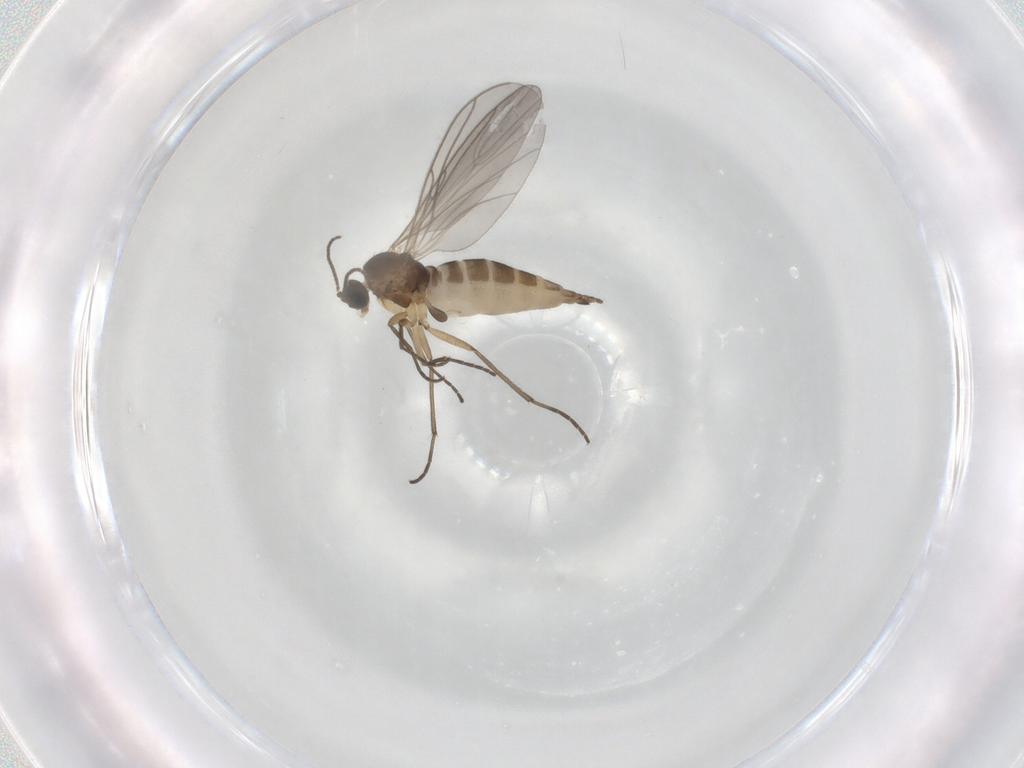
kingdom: Animalia
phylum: Arthropoda
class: Insecta
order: Diptera
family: Sciaridae
